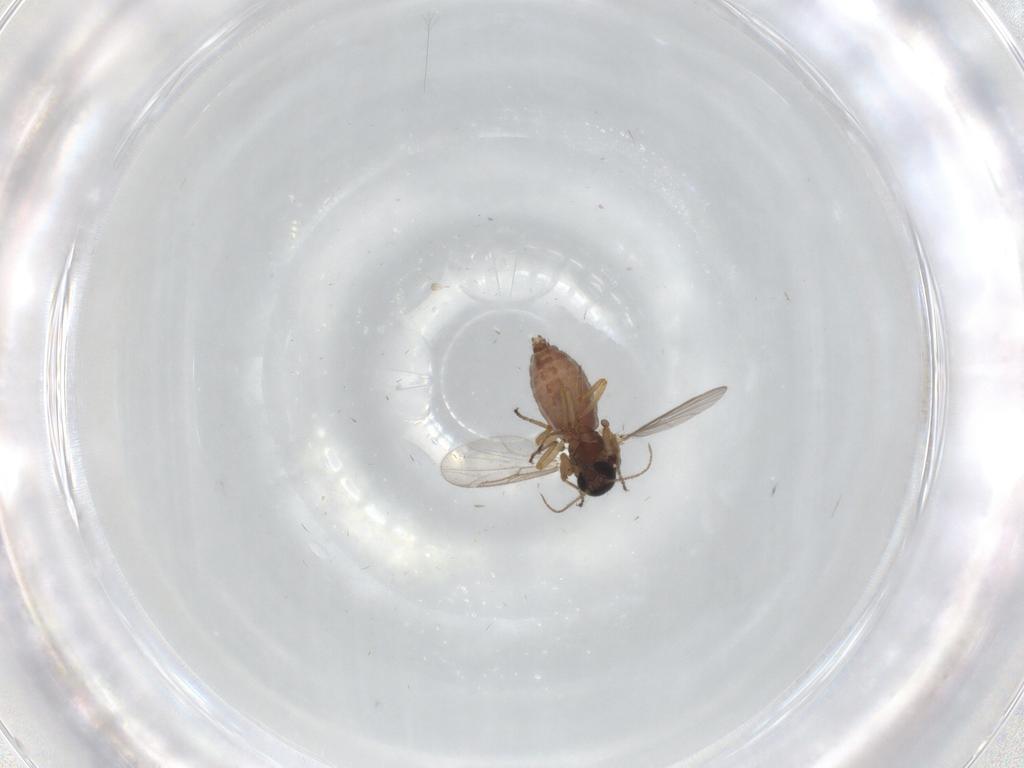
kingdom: Animalia
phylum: Arthropoda
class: Insecta
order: Diptera
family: Ceratopogonidae
